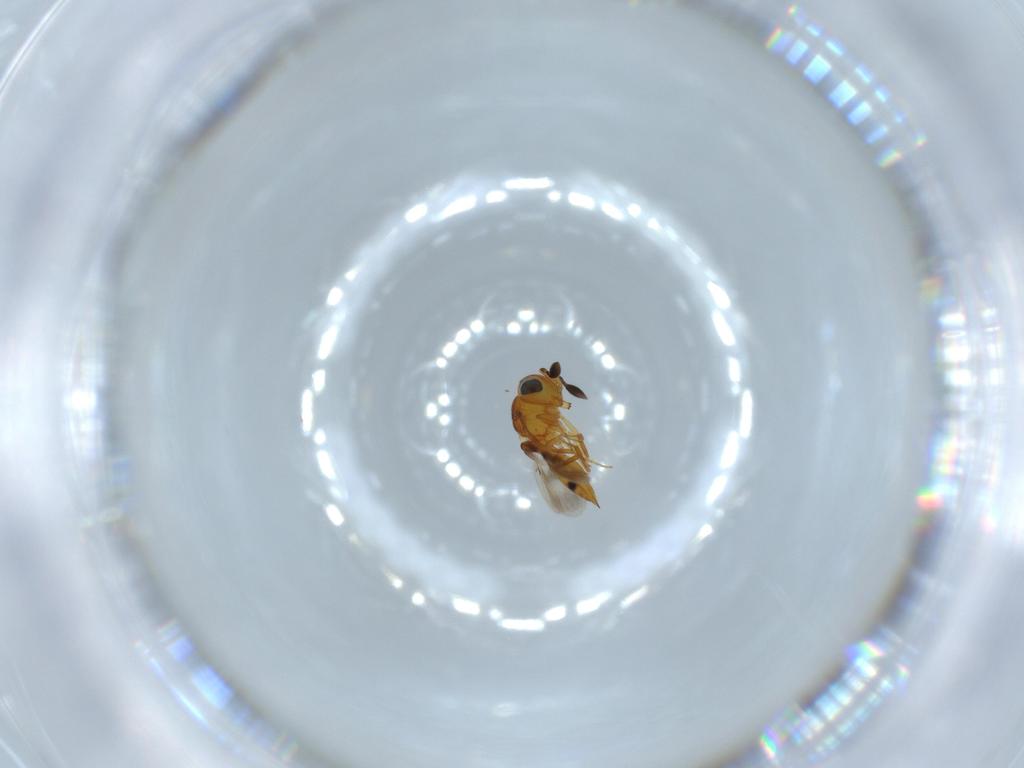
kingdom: Animalia
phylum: Arthropoda
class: Insecta
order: Hymenoptera
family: Scelionidae
